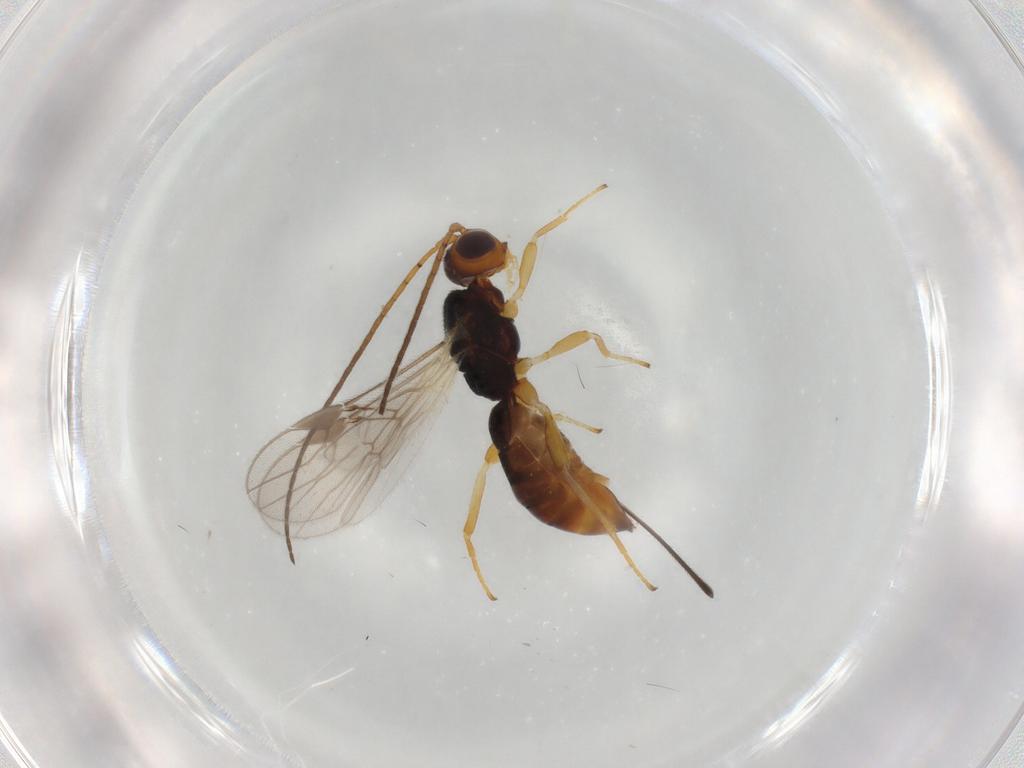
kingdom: Animalia
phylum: Arthropoda
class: Insecta
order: Hymenoptera
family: Braconidae
